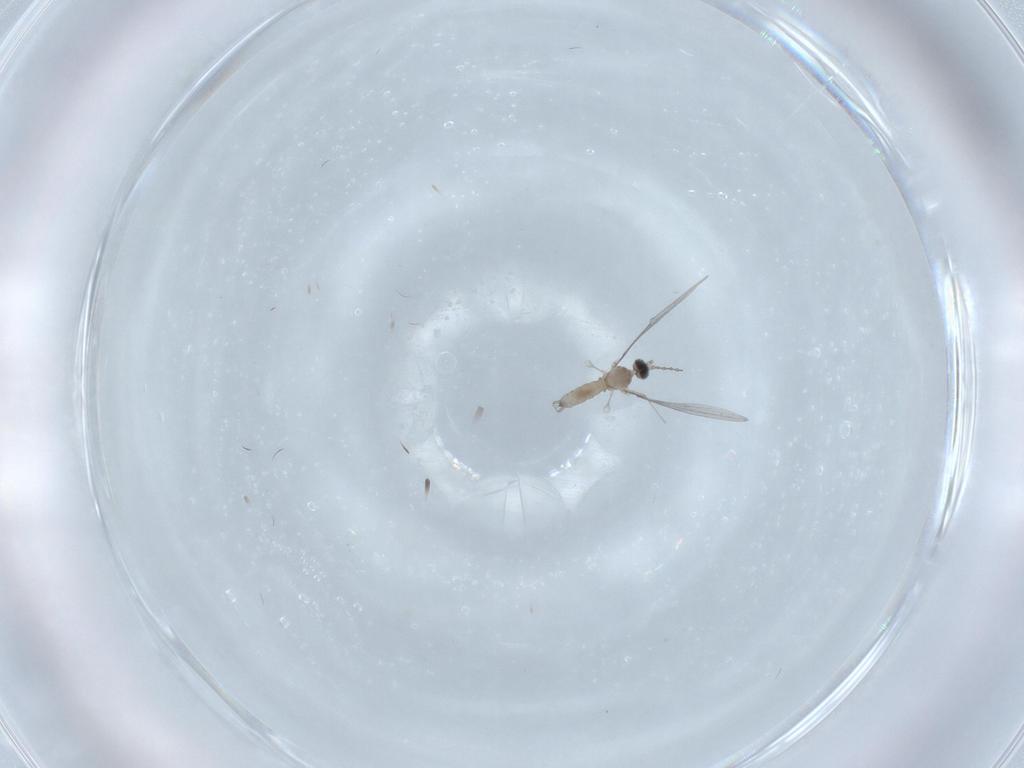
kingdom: Animalia
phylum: Arthropoda
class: Insecta
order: Diptera
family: Cecidomyiidae
